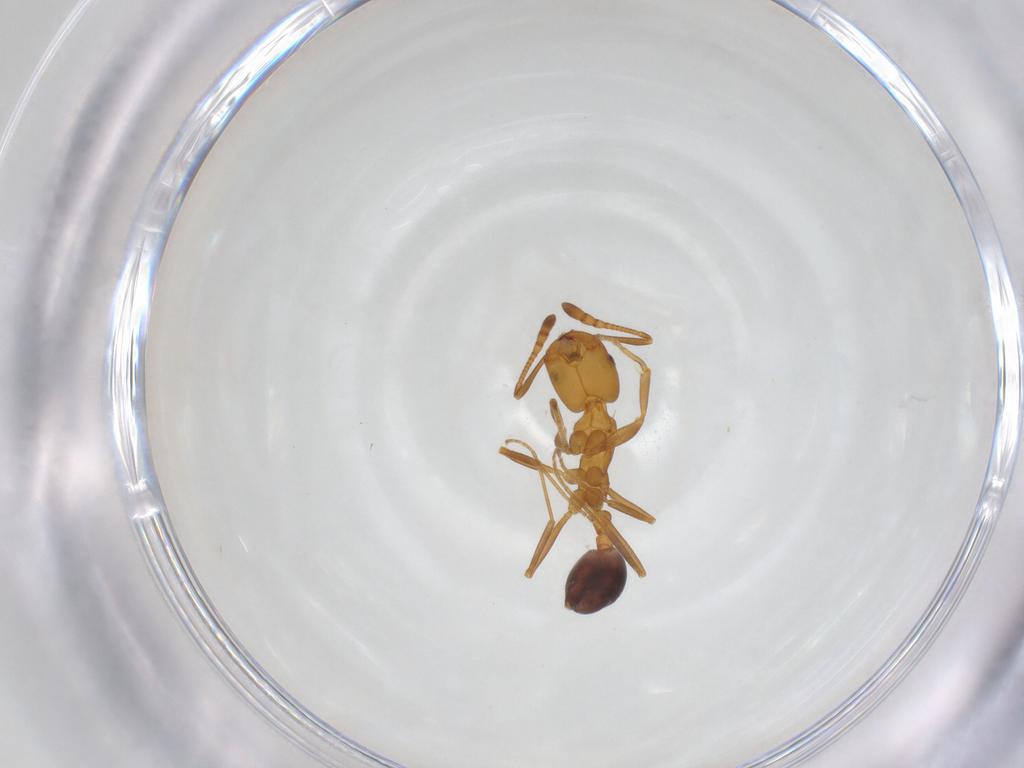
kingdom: Animalia
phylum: Arthropoda
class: Insecta
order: Hymenoptera
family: Formicidae
